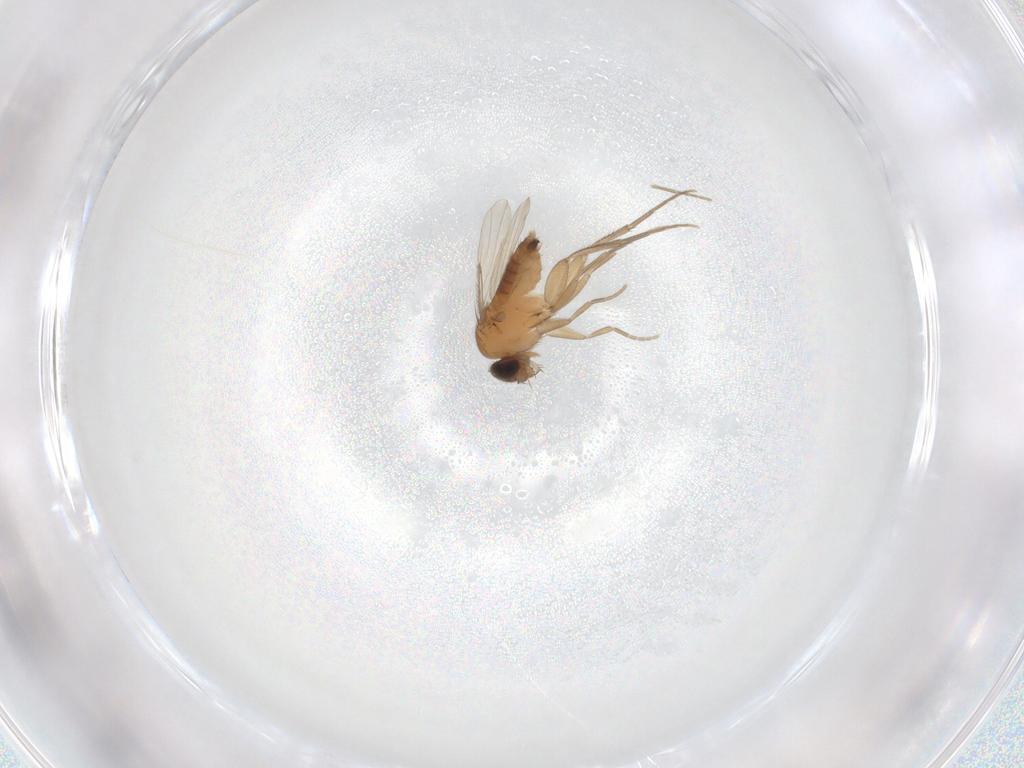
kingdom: Animalia
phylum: Arthropoda
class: Insecta
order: Diptera
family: Phoridae
